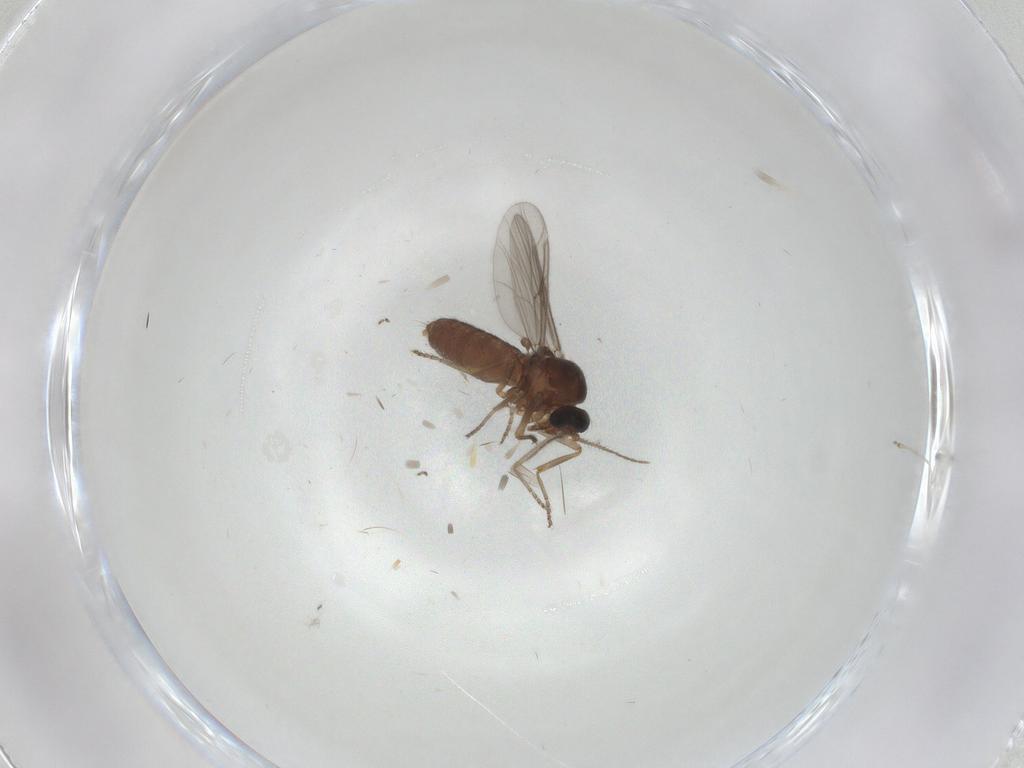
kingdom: Animalia
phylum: Arthropoda
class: Insecta
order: Diptera
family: Ceratopogonidae
